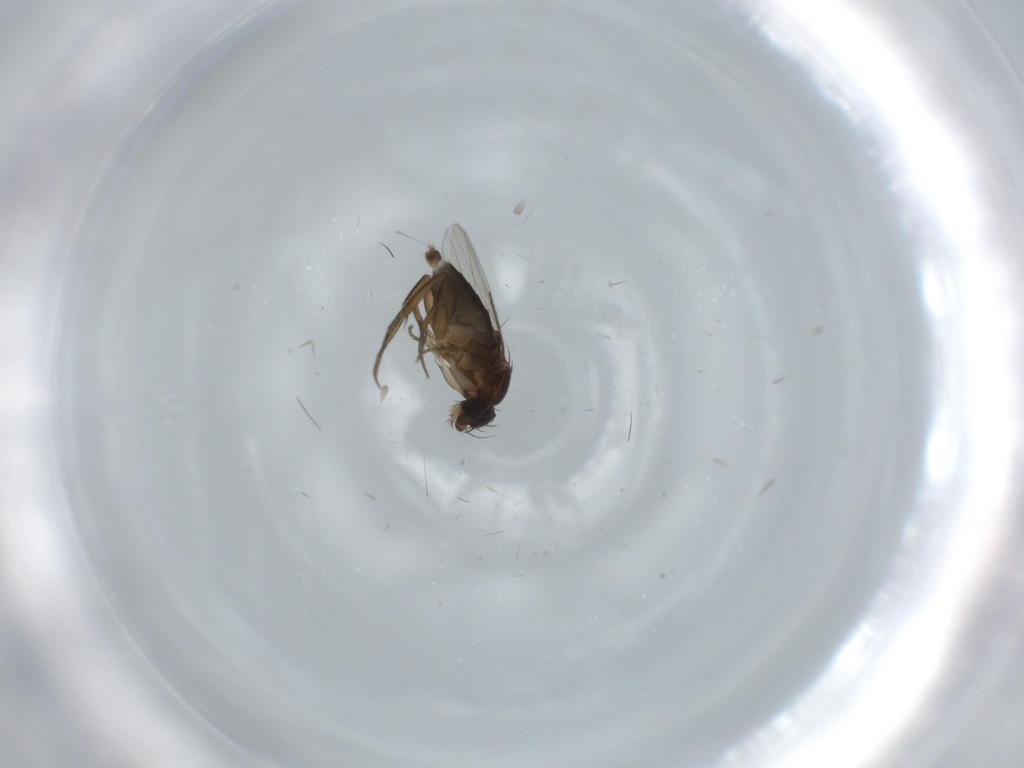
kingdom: Animalia
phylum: Arthropoda
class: Insecta
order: Diptera
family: Phoridae
